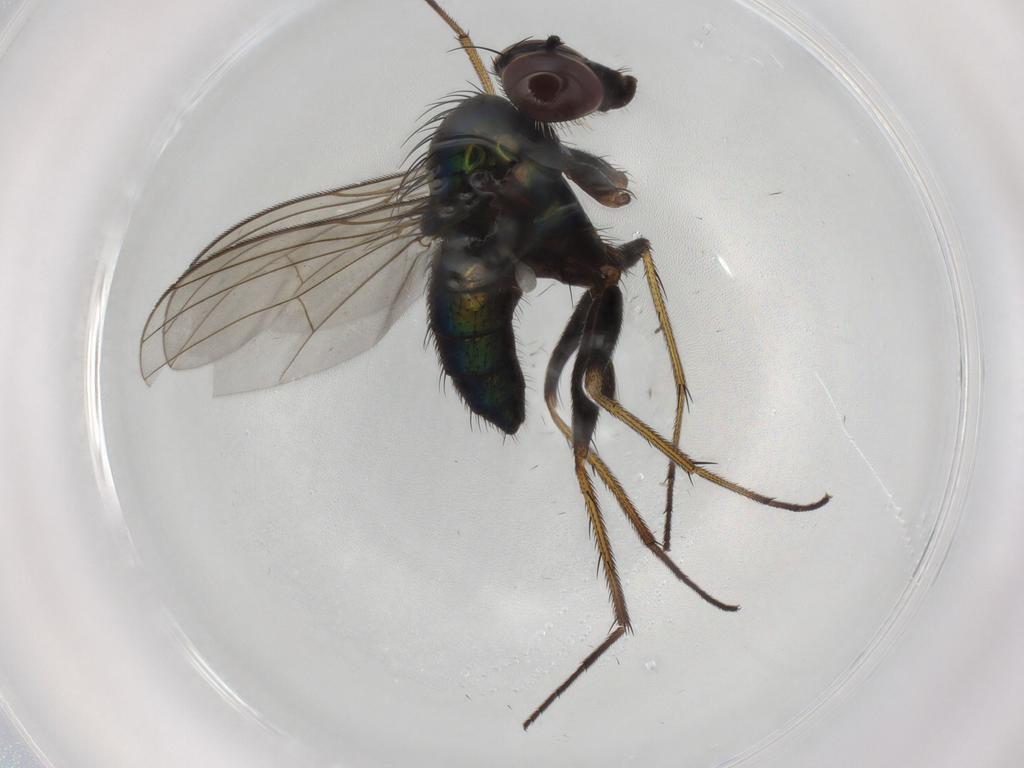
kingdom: Animalia
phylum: Arthropoda
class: Insecta
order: Diptera
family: Dolichopodidae
